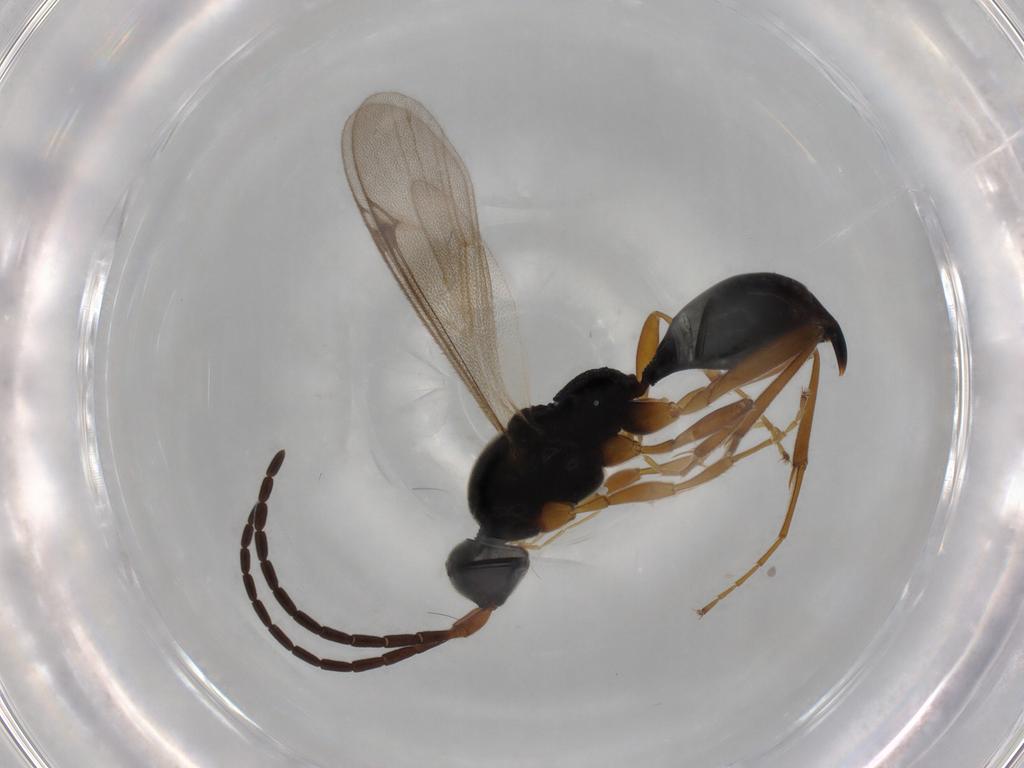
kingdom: Animalia
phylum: Arthropoda
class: Insecta
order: Hymenoptera
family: Proctotrupidae
